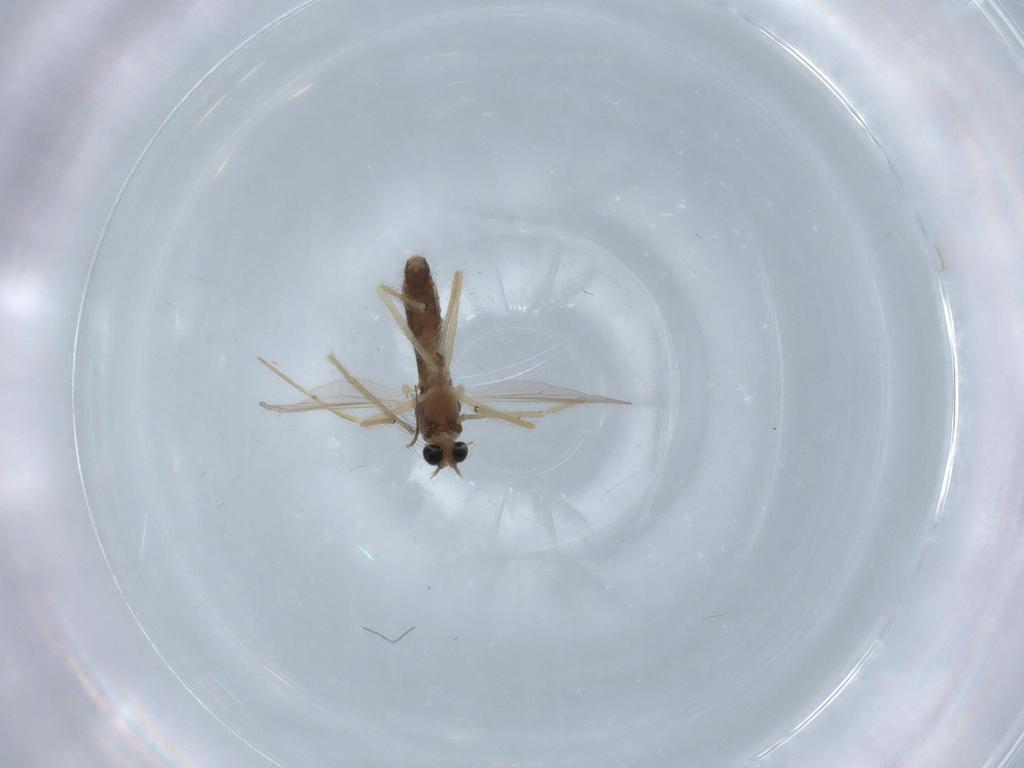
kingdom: Animalia
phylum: Arthropoda
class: Insecta
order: Diptera
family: Chironomidae
